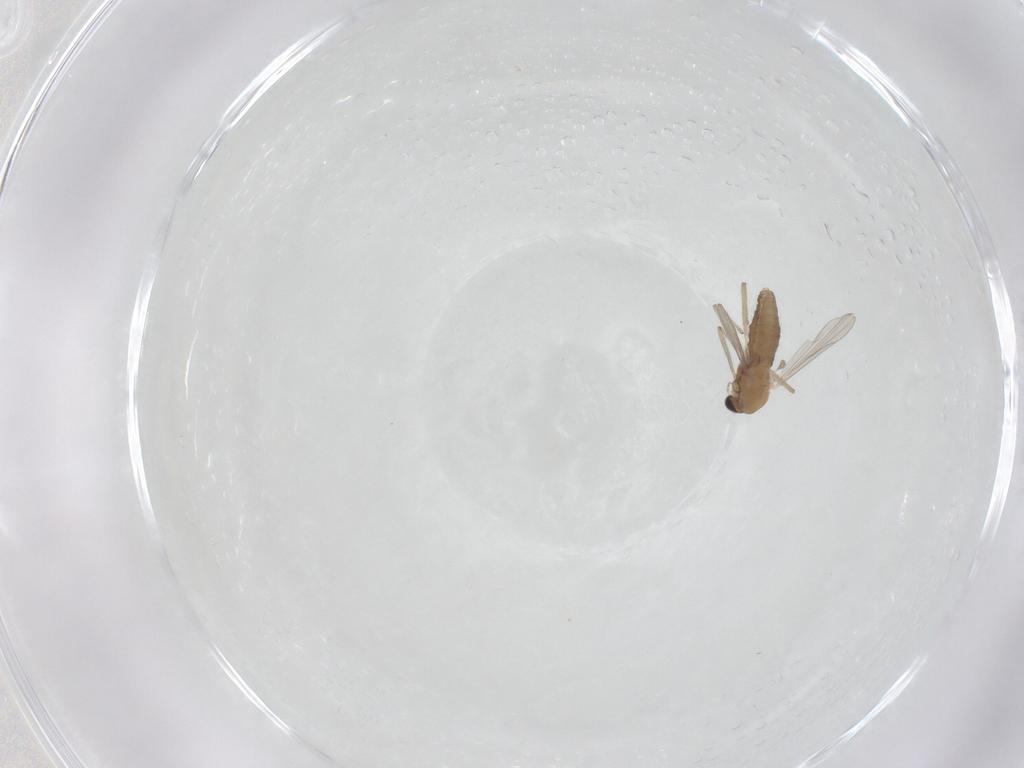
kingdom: Animalia
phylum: Arthropoda
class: Insecta
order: Diptera
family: Chironomidae
